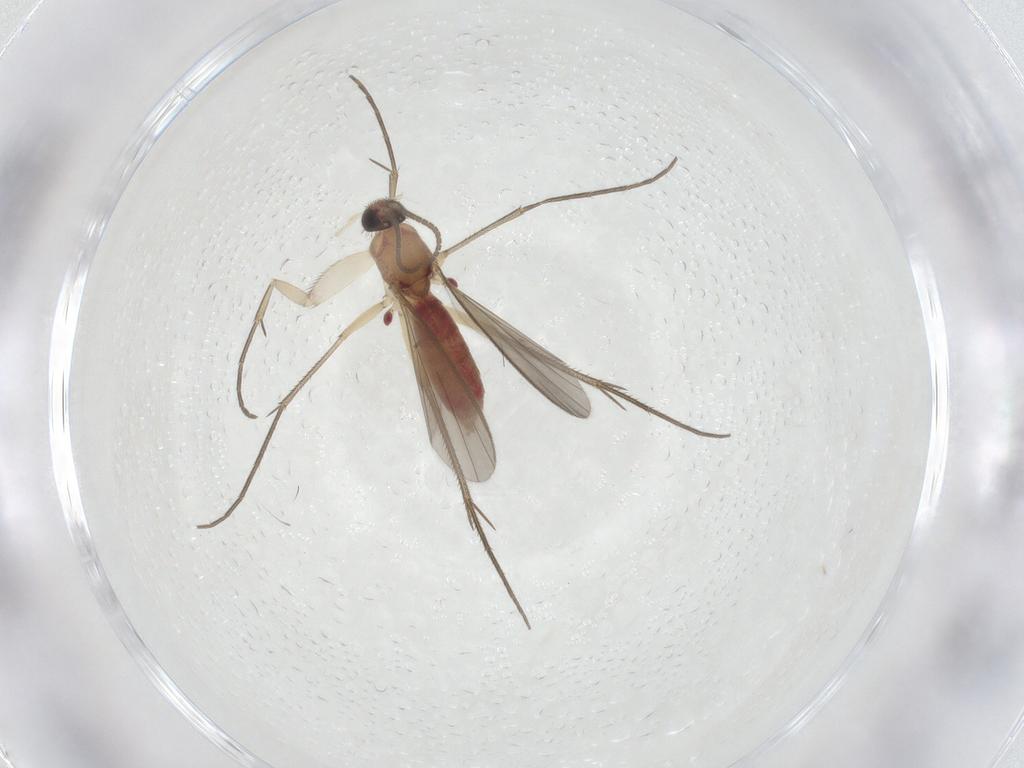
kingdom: Animalia
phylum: Arthropoda
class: Insecta
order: Diptera
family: Mycetophilidae
